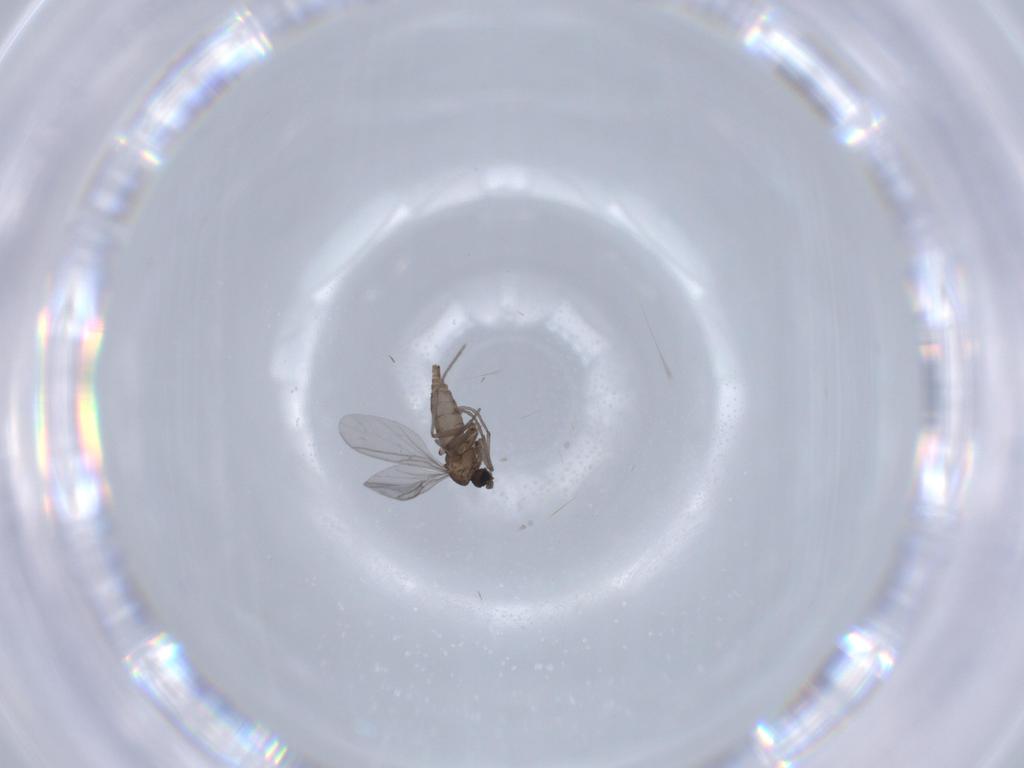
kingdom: Animalia
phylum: Arthropoda
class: Insecta
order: Diptera
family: Sciaridae
